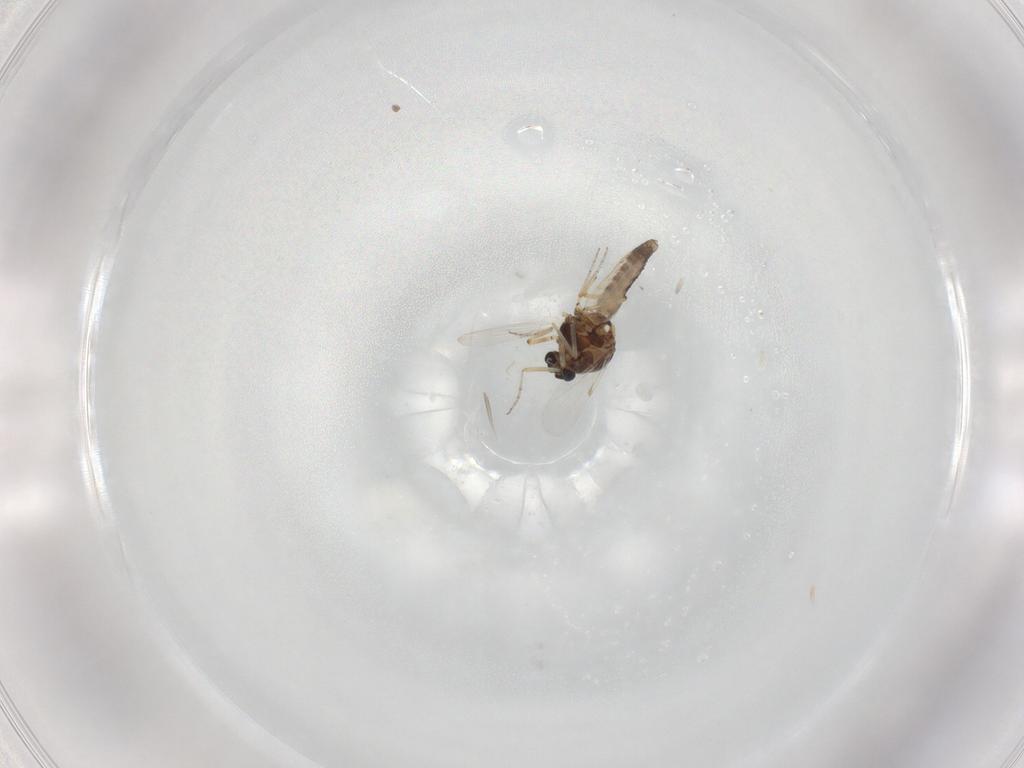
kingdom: Animalia
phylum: Arthropoda
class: Insecta
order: Diptera
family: Ceratopogonidae
